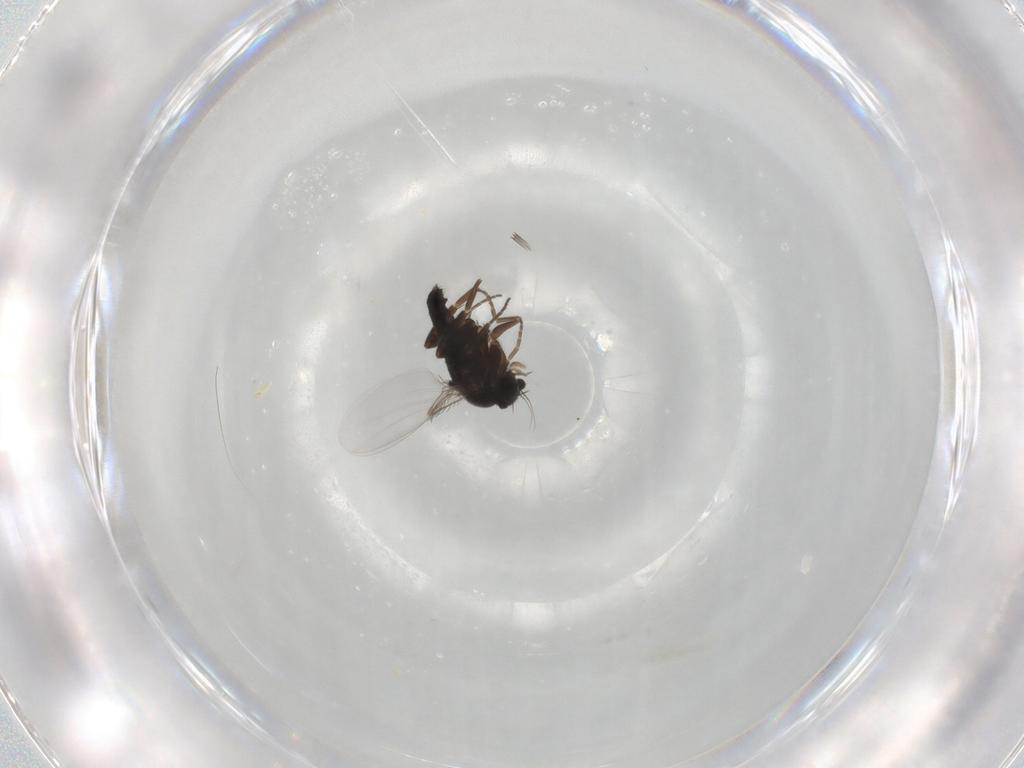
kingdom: Animalia
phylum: Arthropoda
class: Insecta
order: Diptera
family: Phoridae
